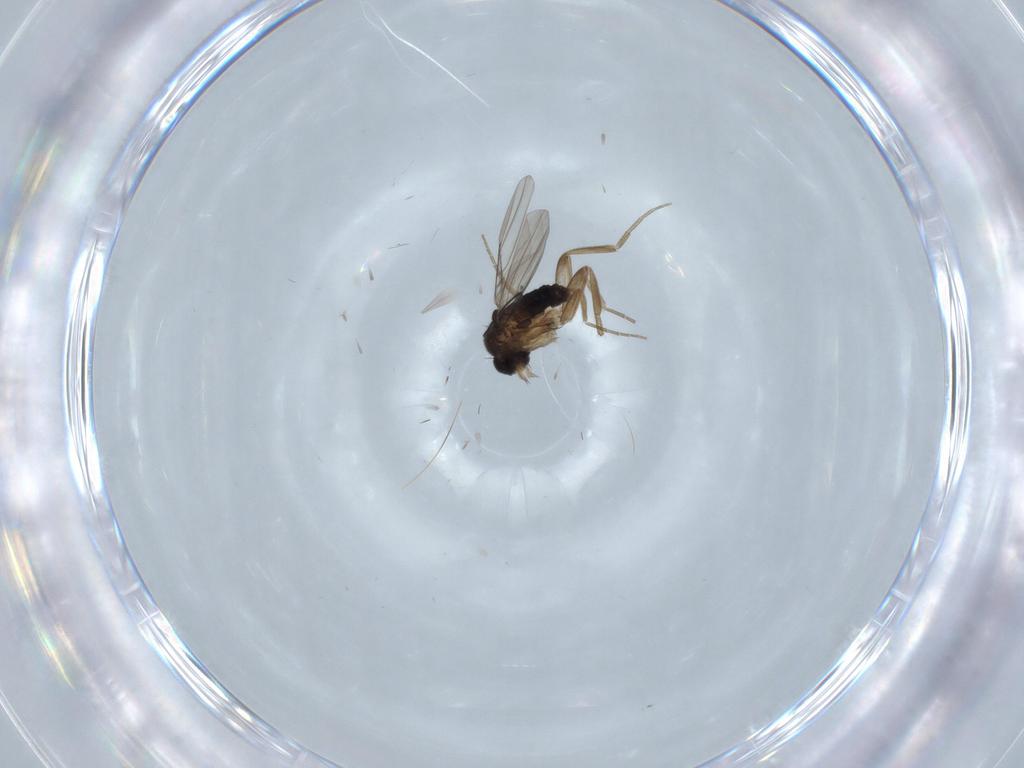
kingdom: Animalia
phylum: Arthropoda
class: Insecta
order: Diptera
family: Phoridae
